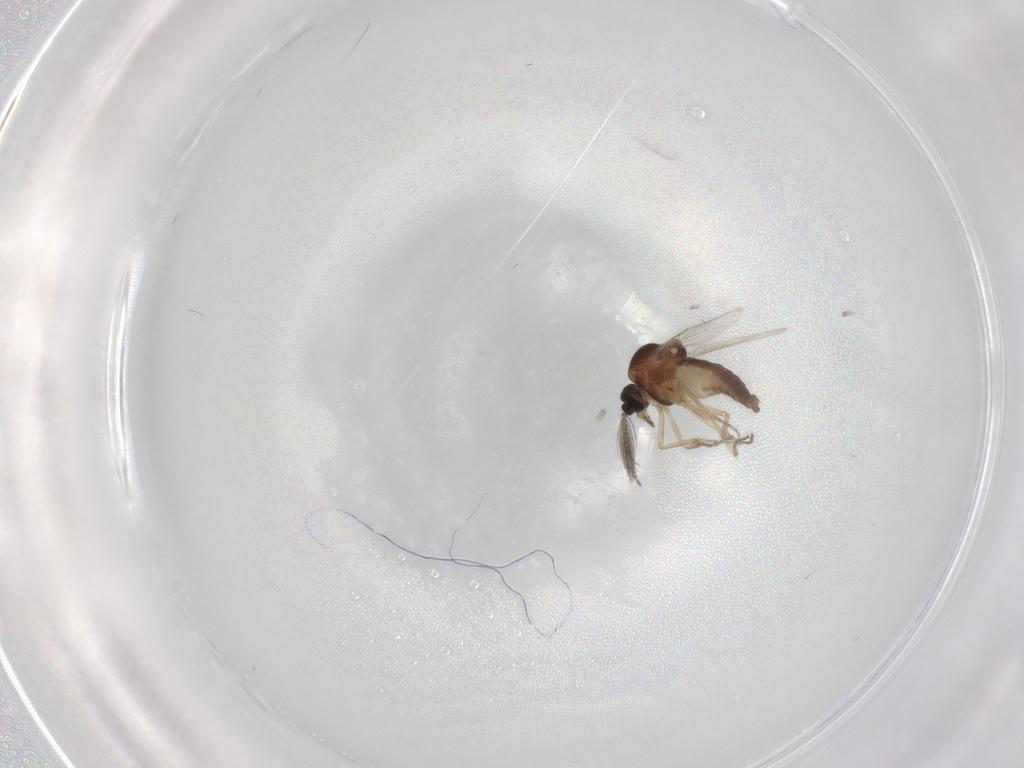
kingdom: Animalia
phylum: Arthropoda
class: Insecta
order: Diptera
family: Ceratopogonidae
